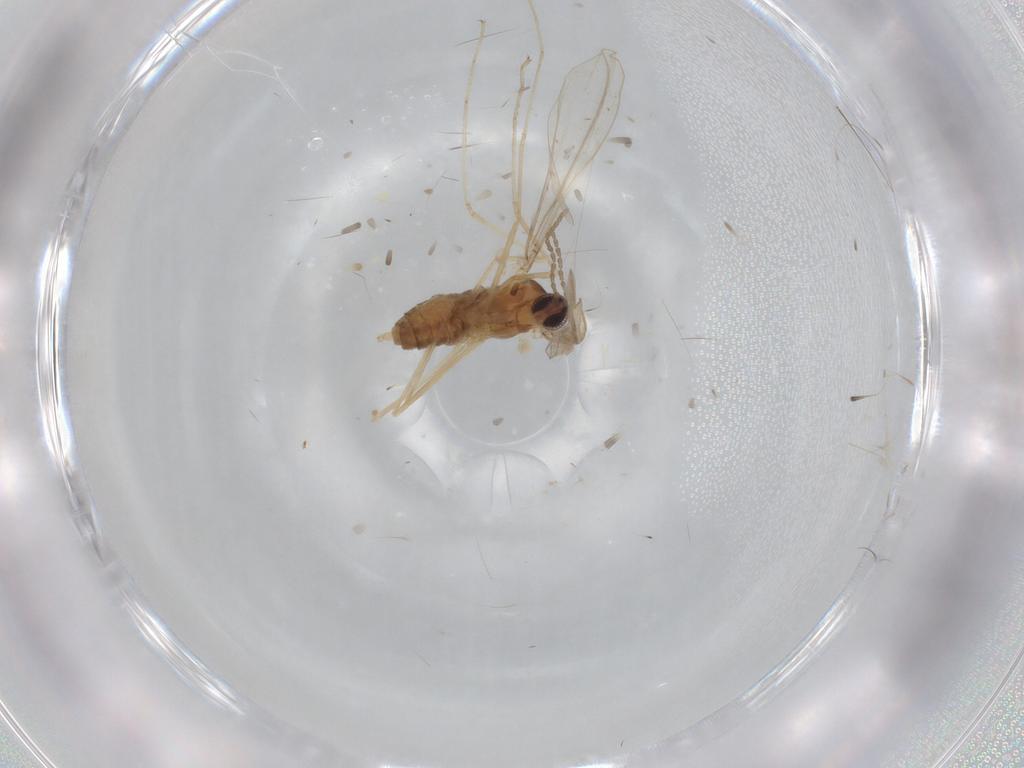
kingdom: Animalia
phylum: Arthropoda
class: Insecta
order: Diptera
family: Cecidomyiidae
